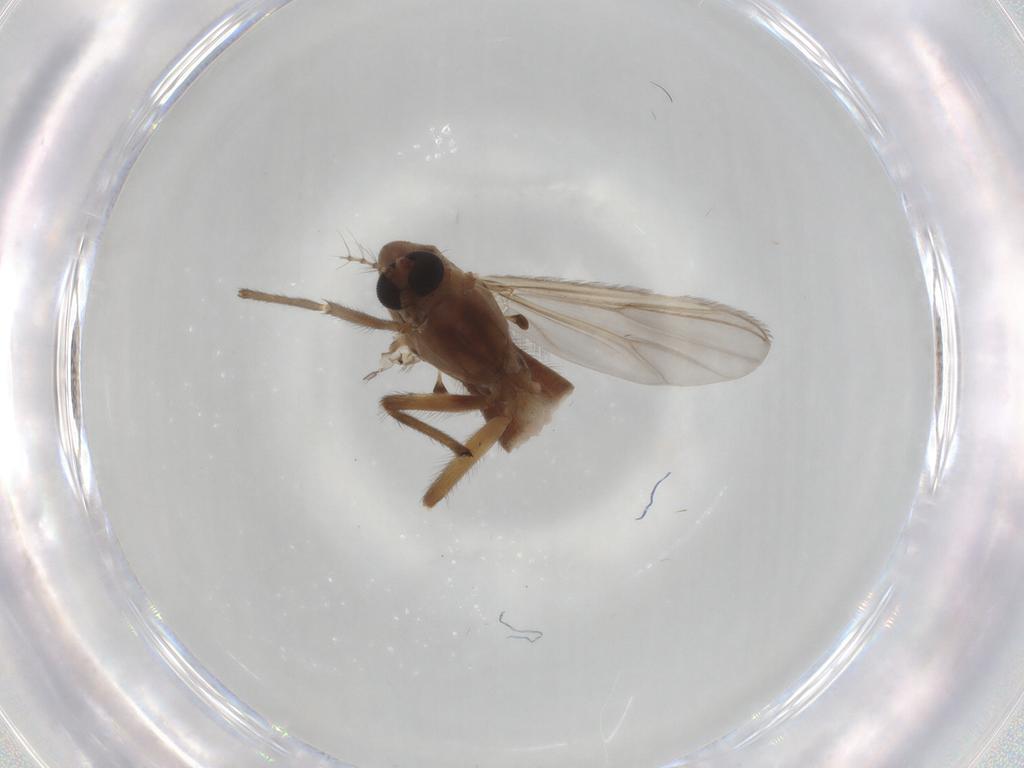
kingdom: Animalia
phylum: Arthropoda
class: Insecta
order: Diptera
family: Chironomidae
